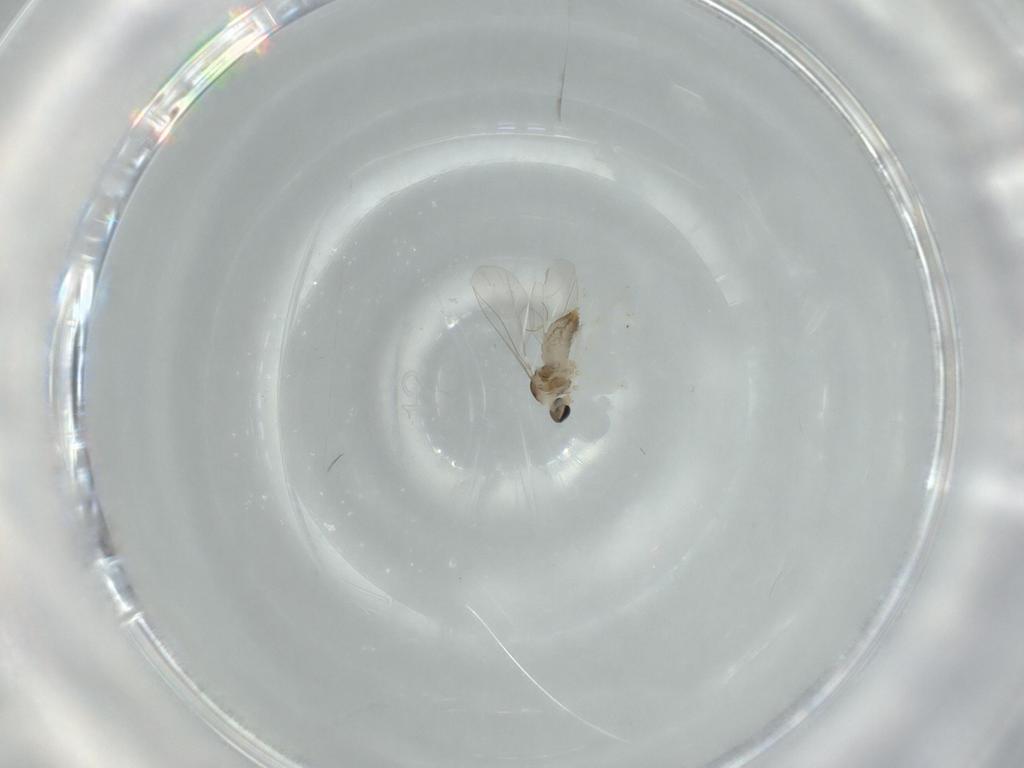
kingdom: Animalia
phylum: Arthropoda
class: Insecta
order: Diptera
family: Cecidomyiidae
